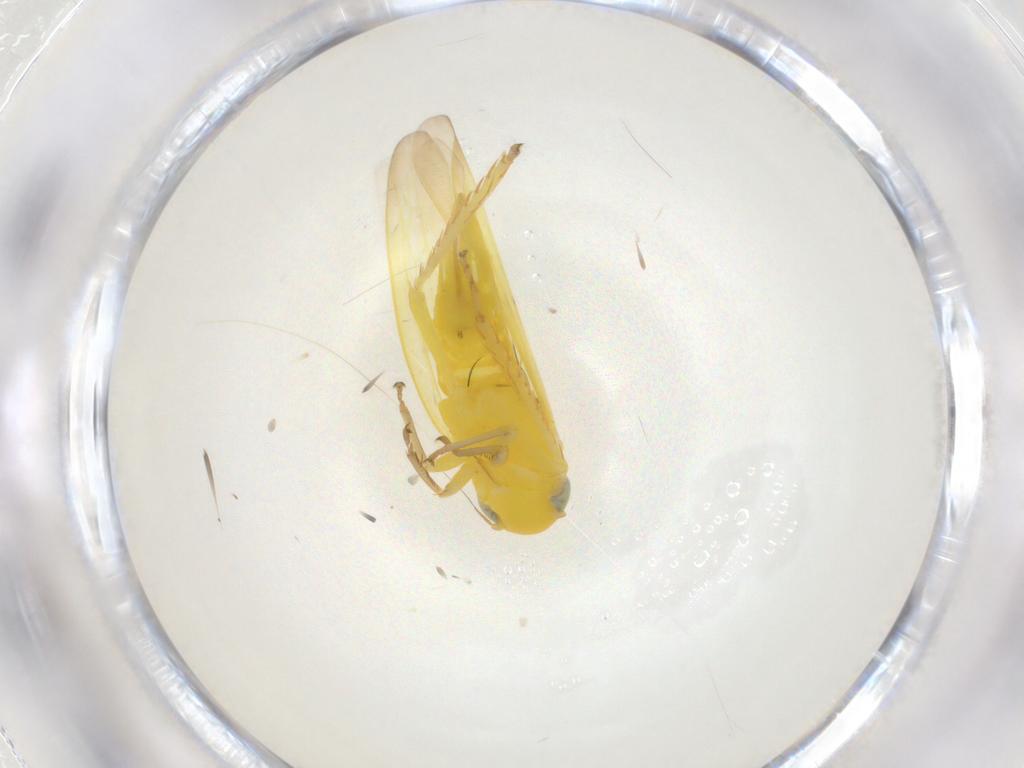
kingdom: Animalia
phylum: Arthropoda
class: Insecta
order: Hemiptera
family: Cicadellidae
